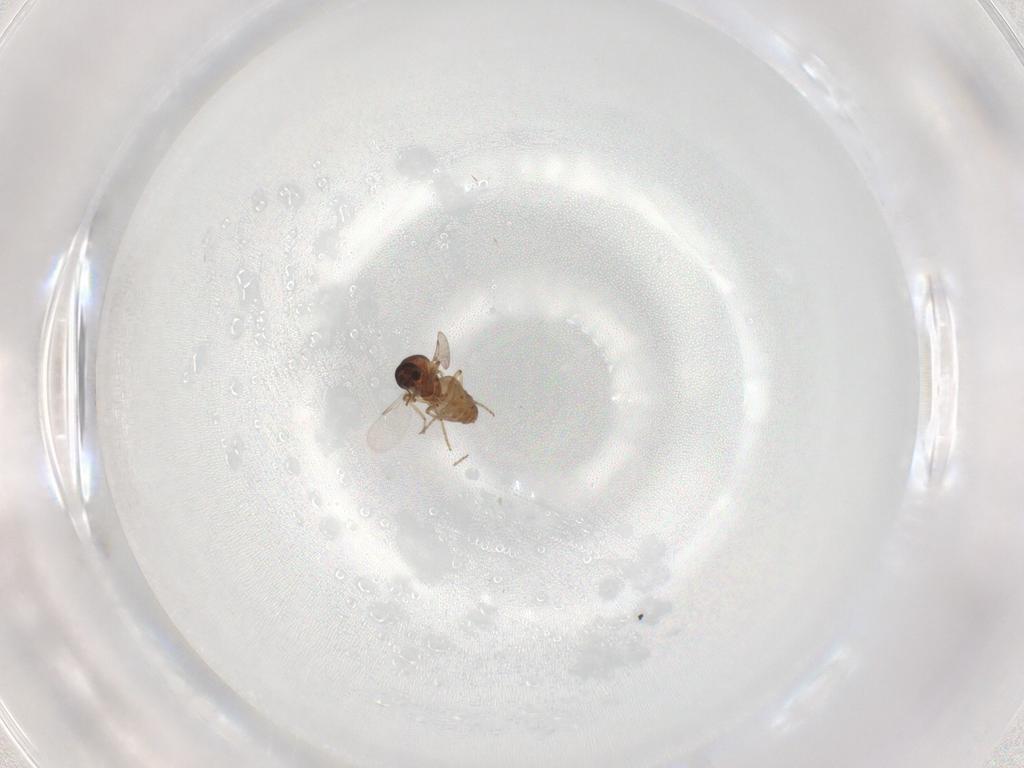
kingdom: Animalia
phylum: Arthropoda
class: Insecta
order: Diptera
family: Ceratopogonidae
